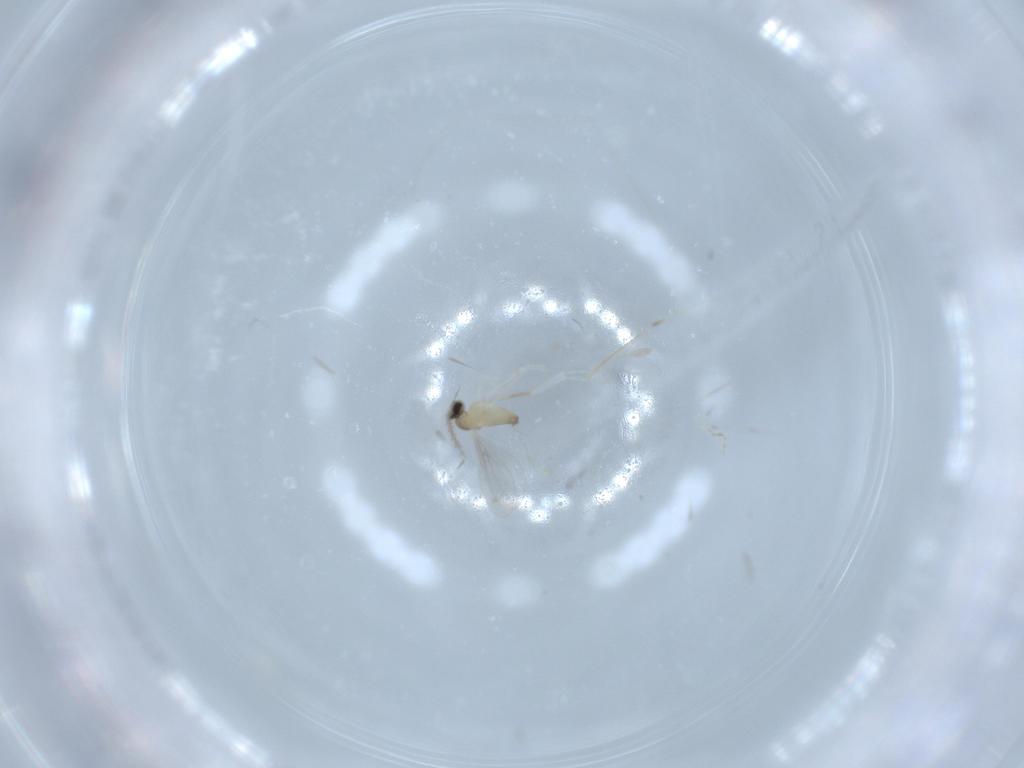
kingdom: Animalia
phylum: Arthropoda
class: Insecta
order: Diptera
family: Cecidomyiidae
